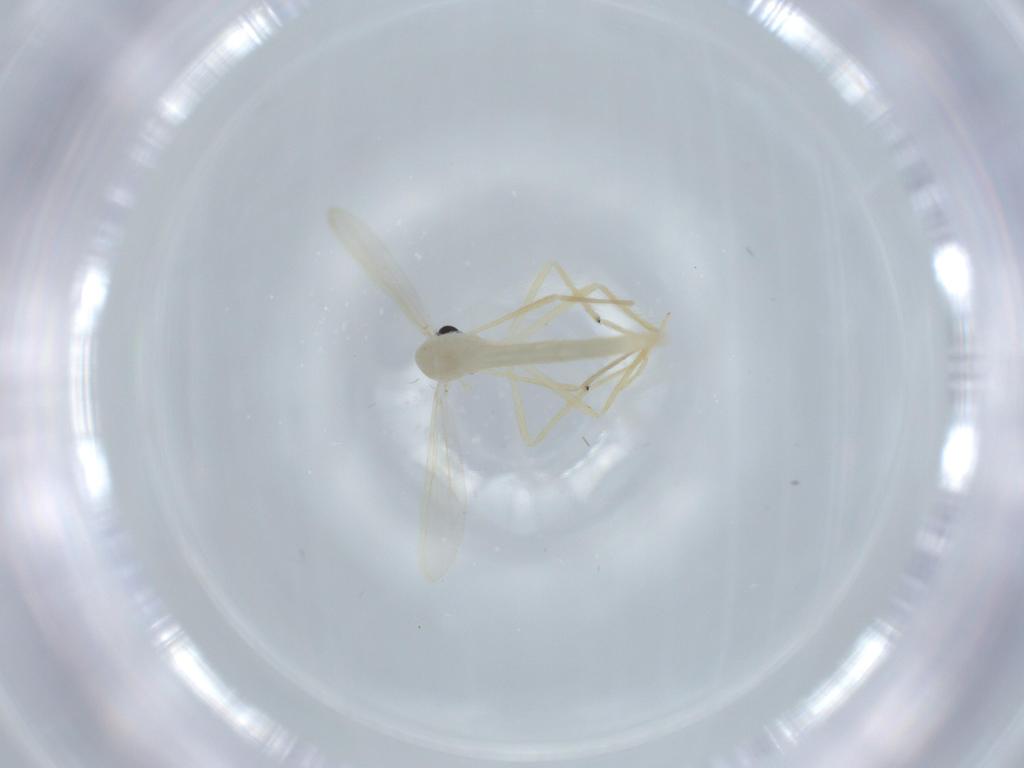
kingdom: Animalia
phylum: Arthropoda
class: Insecta
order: Diptera
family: Chironomidae
